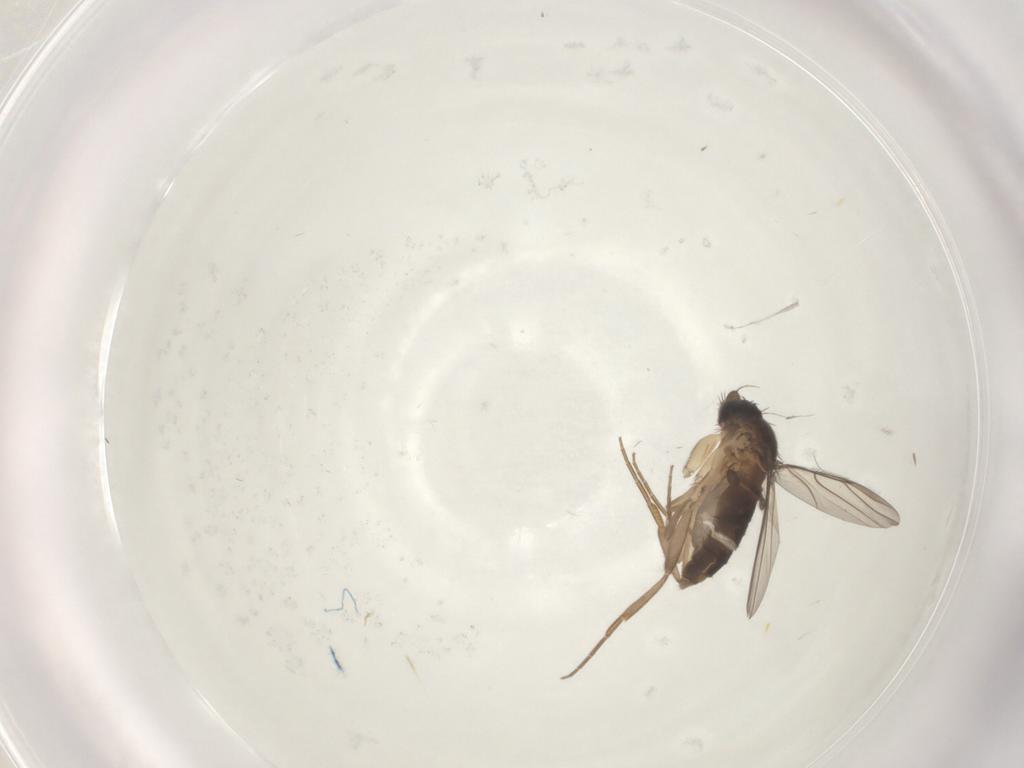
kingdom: Animalia
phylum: Arthropoda
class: Insecta
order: Diptera
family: Phoridae
